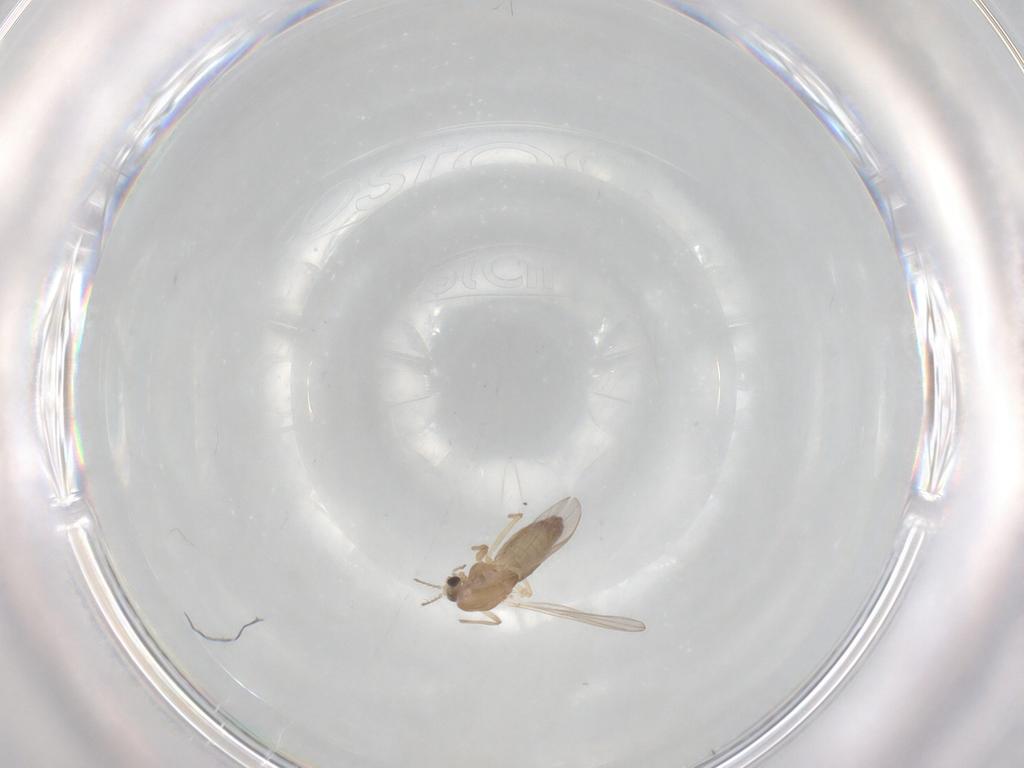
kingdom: Animalia
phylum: Arthropoda
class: Insecta
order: Diptera
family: Chironomidae
